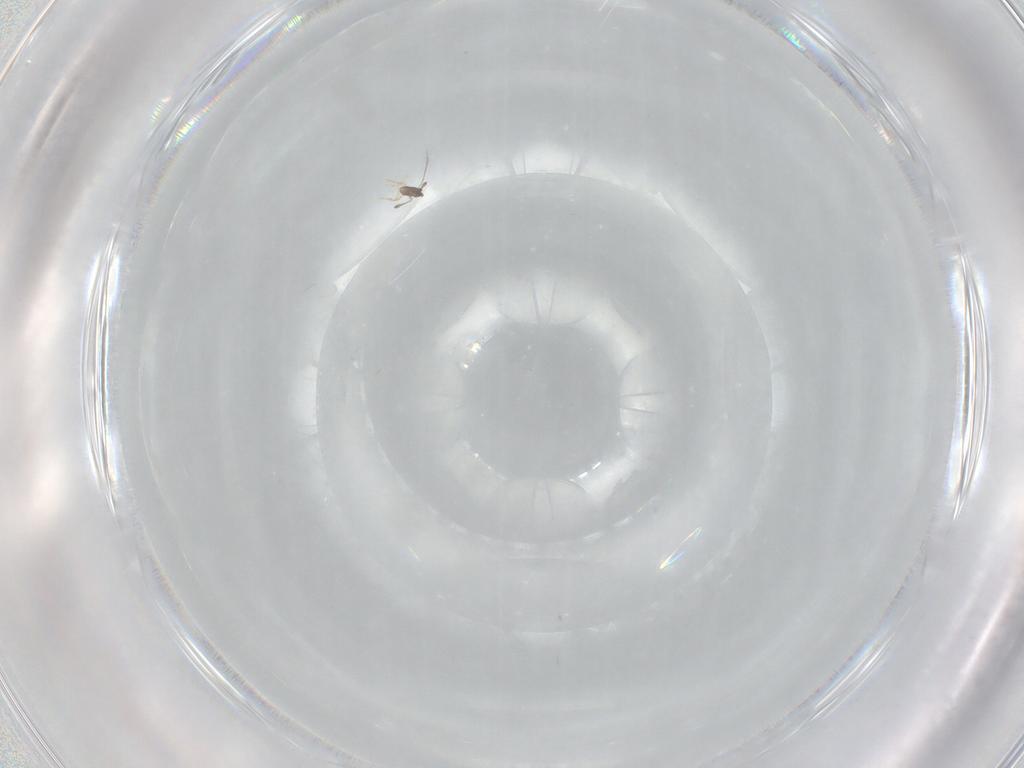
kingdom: Animalia
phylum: Arthropoda
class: Insecta
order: Hymenoptera
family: Mymaridae
